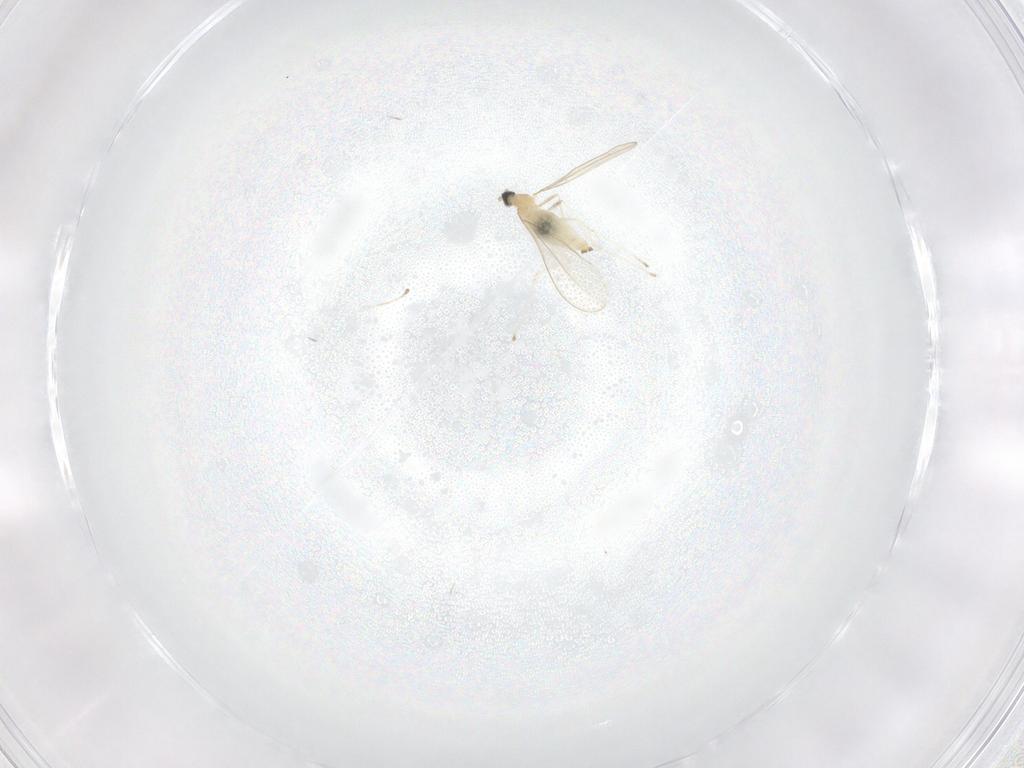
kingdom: Animalia
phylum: Arthropoda
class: Insecta
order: Diptera
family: Cecidomyiidae
